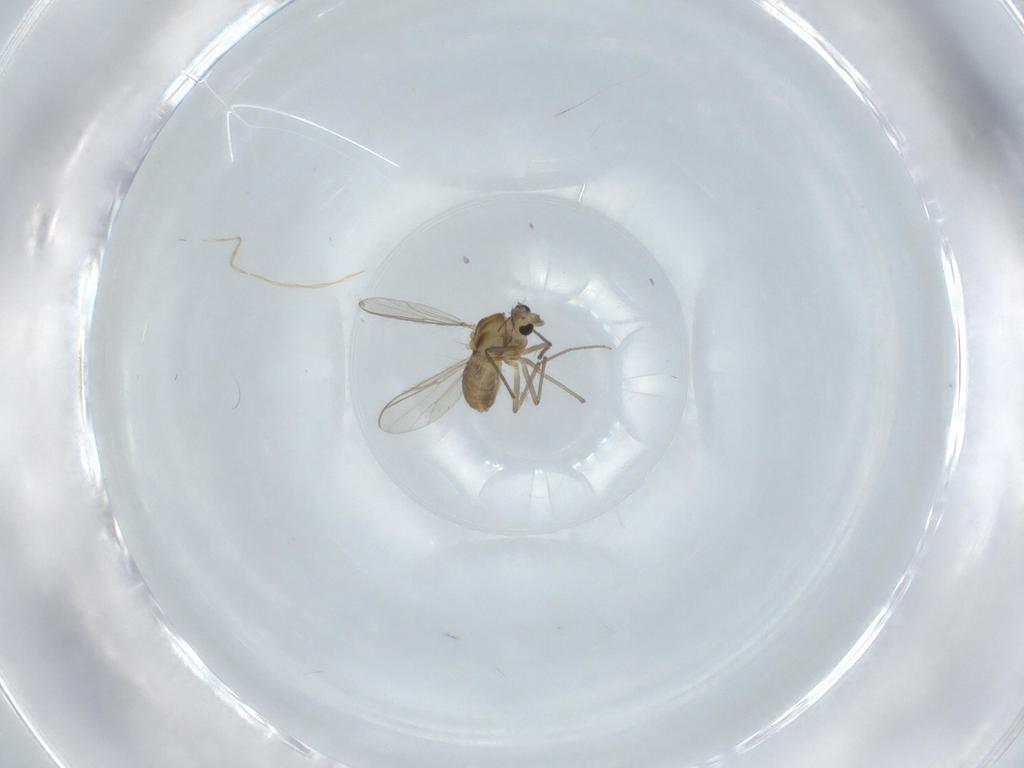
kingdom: Animalia
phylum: Arthropoda
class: Insecta
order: Diptera
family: Chironomidae
